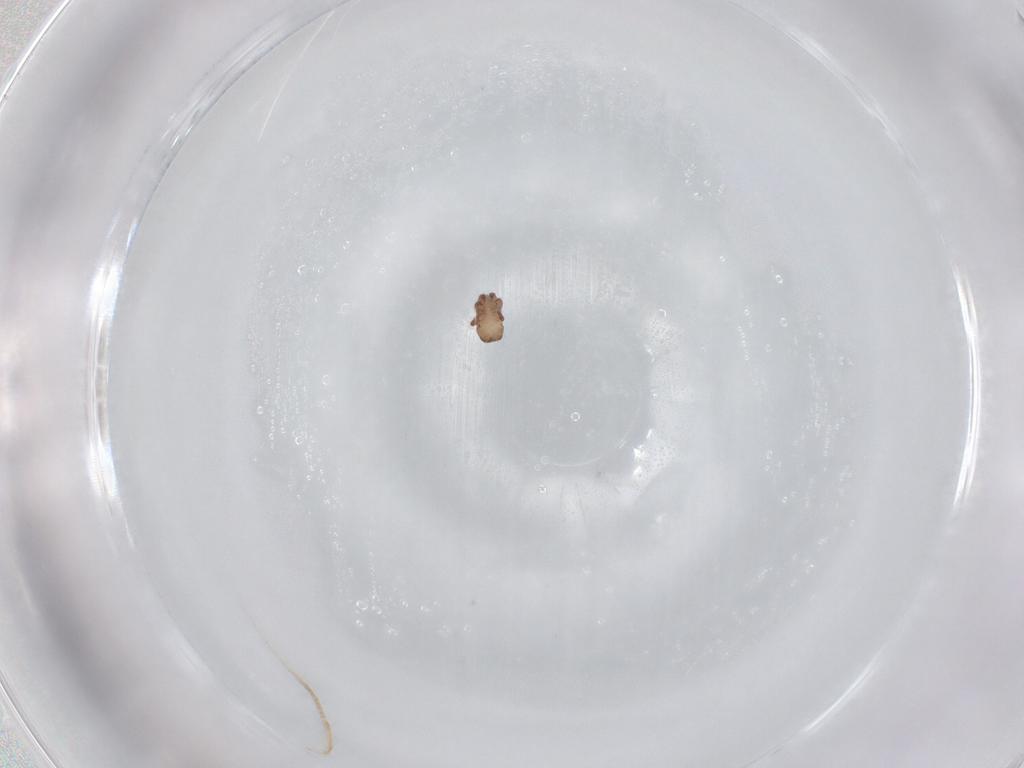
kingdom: Animalia
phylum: Arthropoda
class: Arachnida
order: Sarcoptiformes
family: Hermanniidae
